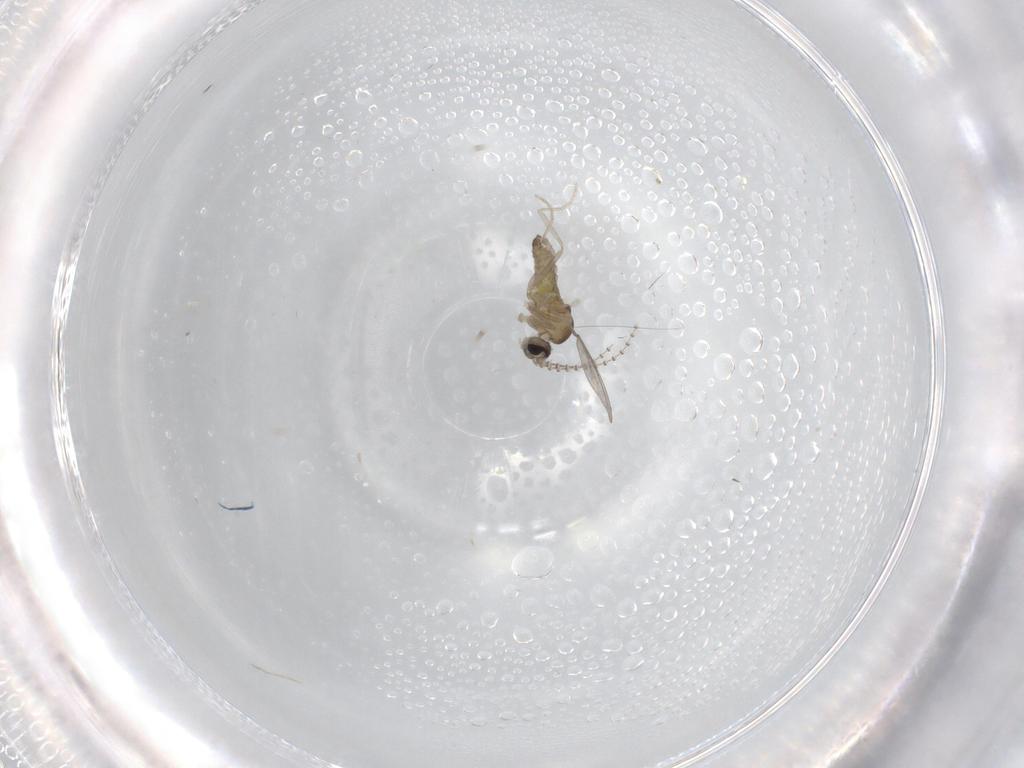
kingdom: Animalia
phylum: Arthropoda
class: Insecta
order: Diptera
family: Cecidomyiidae
